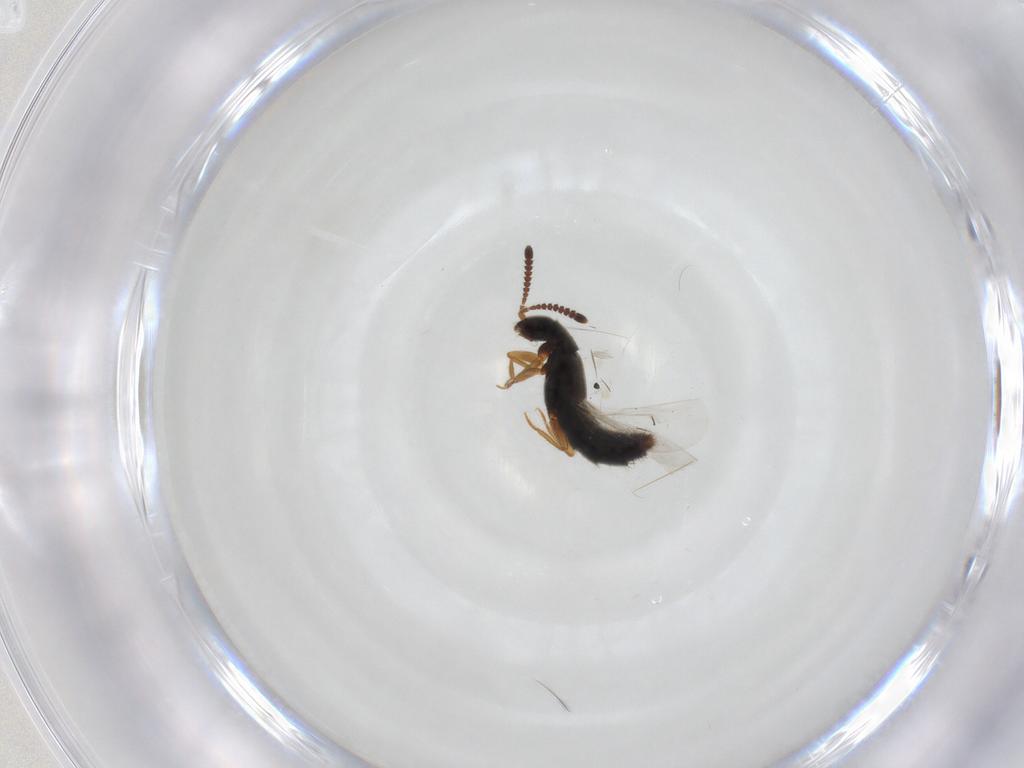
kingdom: Animalia
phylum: Arthropoda
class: Insecta
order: Coleoptera
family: Staphylinidae
